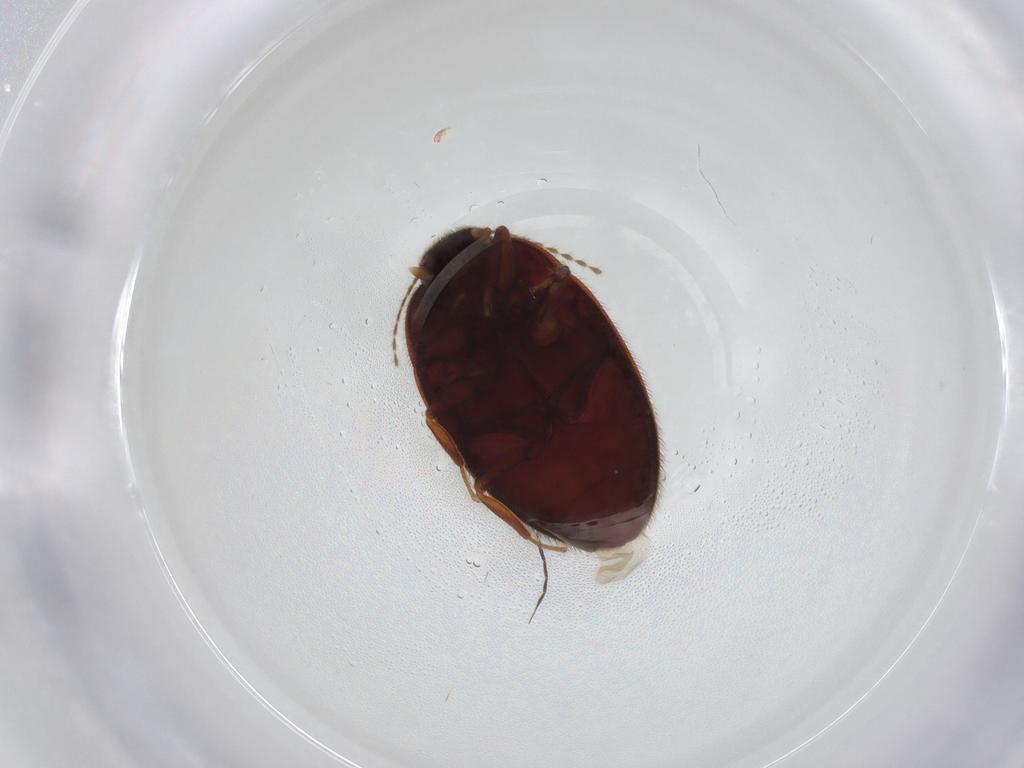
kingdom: Animalia
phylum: Arthropoda
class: Insecta
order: Coleoptera
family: Limnichidae
